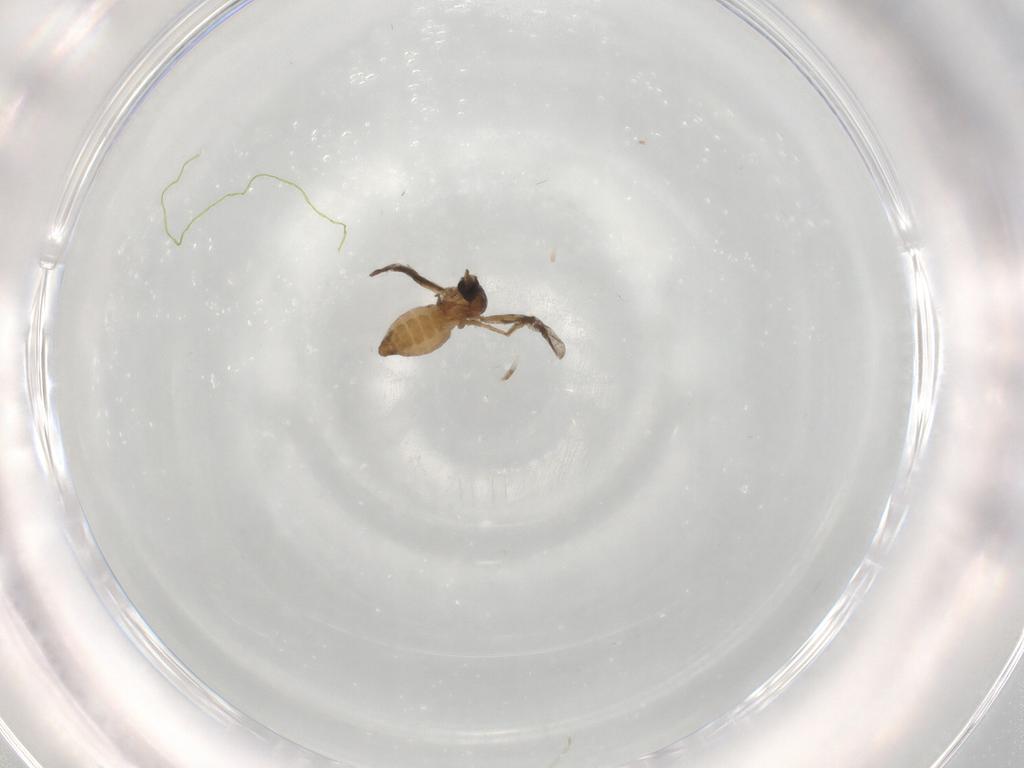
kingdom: Animalia
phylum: Arthropoda
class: Insecta
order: Diptera
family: Chironomidae
